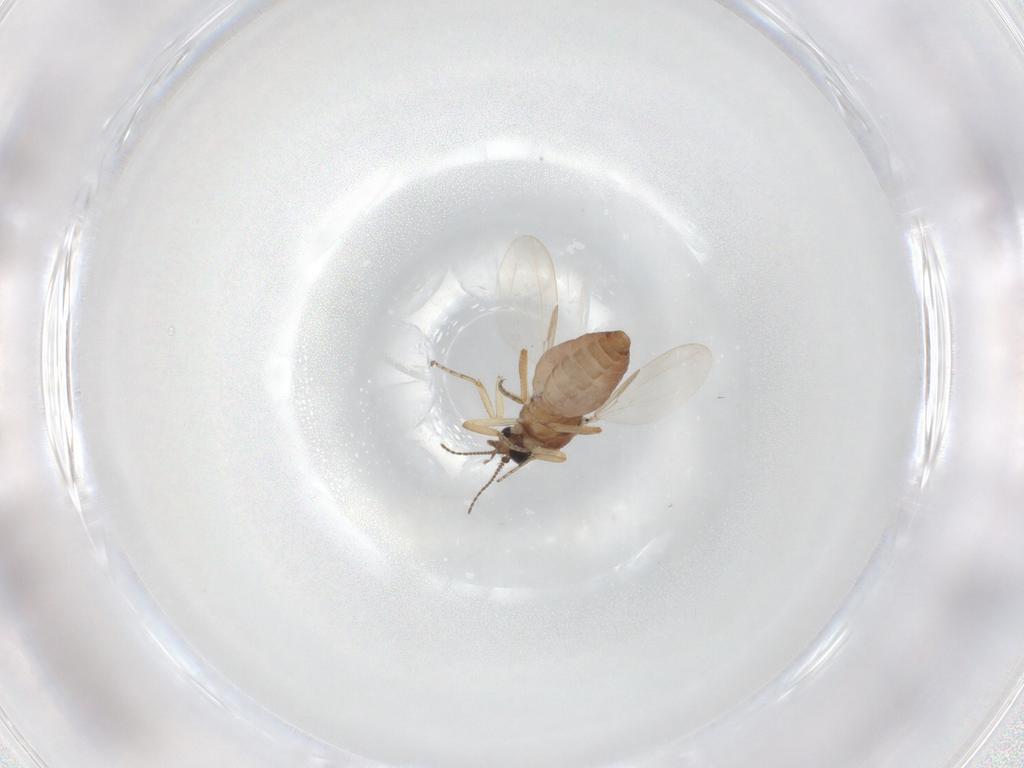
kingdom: Animalia
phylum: Arthropoda
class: Insecta
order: Diptera
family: Ceratopogonidae
